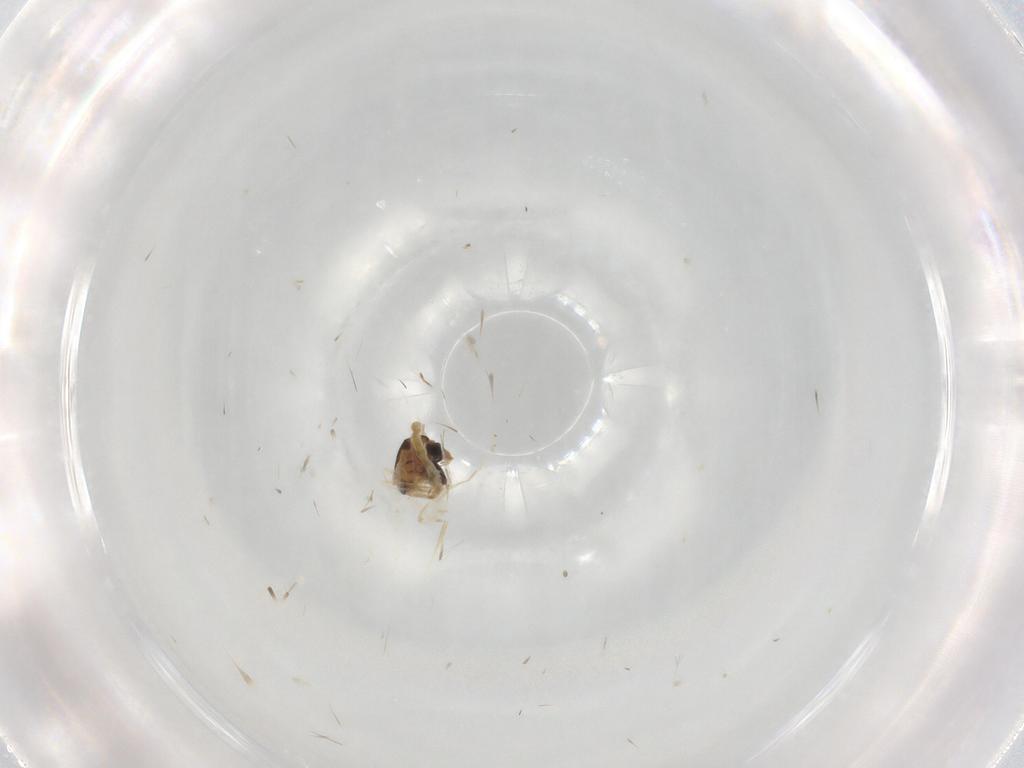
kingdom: Animalia
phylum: Arthropoda
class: Insecta
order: Diptera
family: Chironomidae
